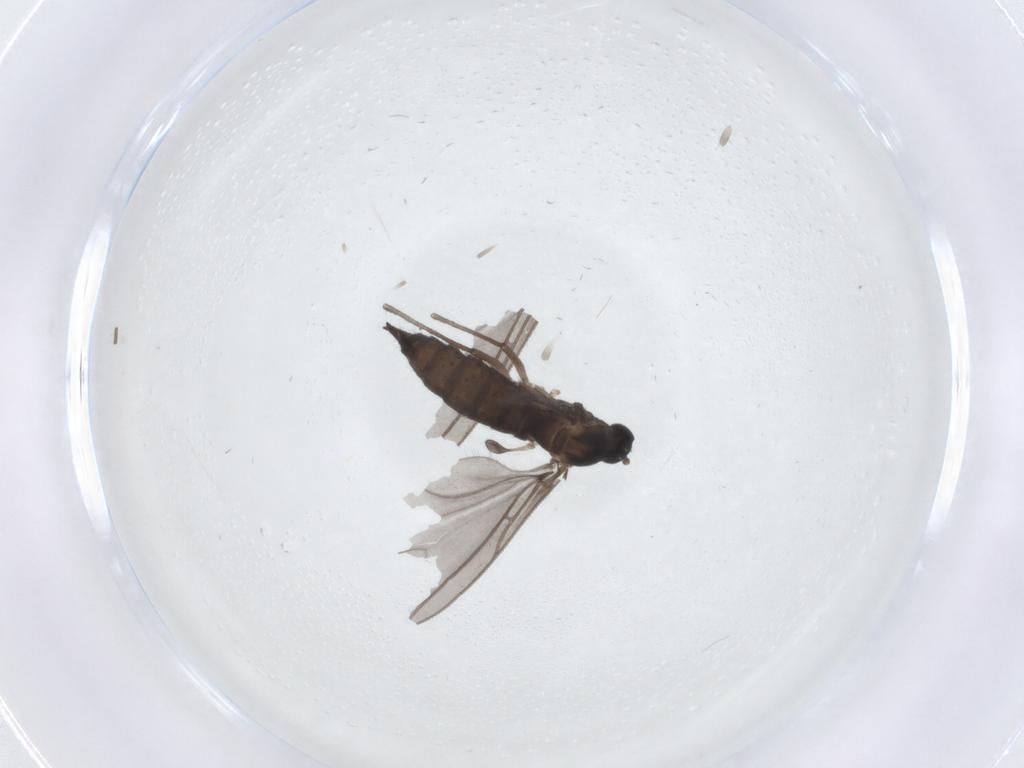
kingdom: Animalia
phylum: Arthropoda
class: Insecta
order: Diptera
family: Sciaridae
